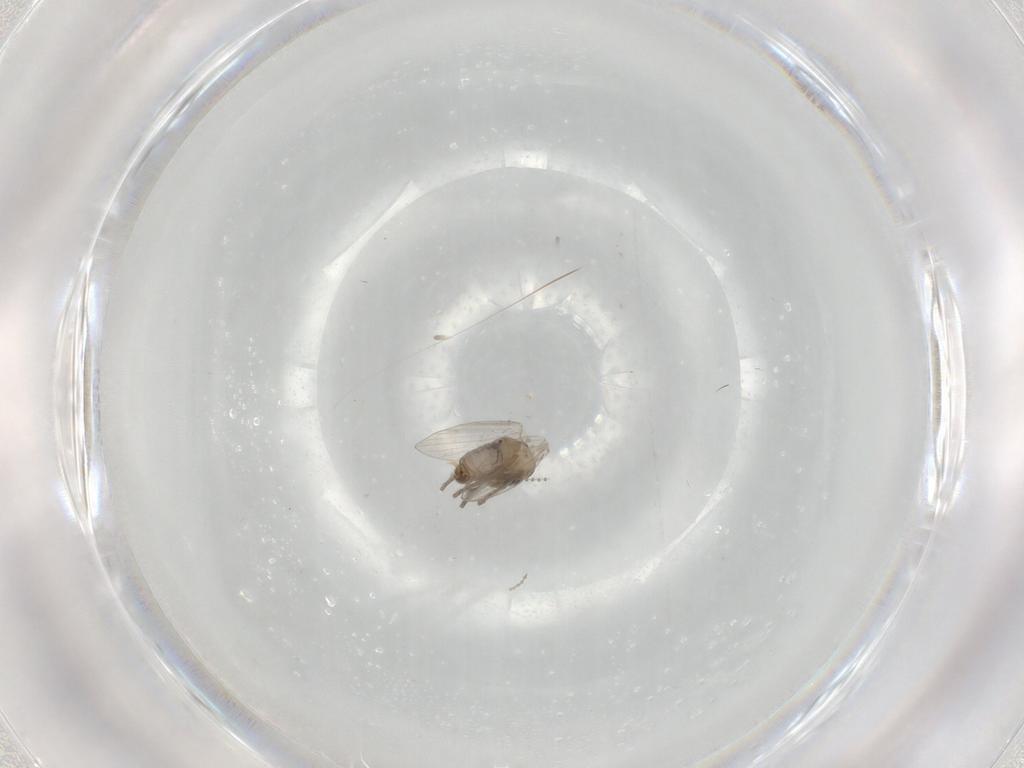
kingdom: Animalia
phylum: Arthropoda
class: Insecta
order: Diptera
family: Psychodidae
